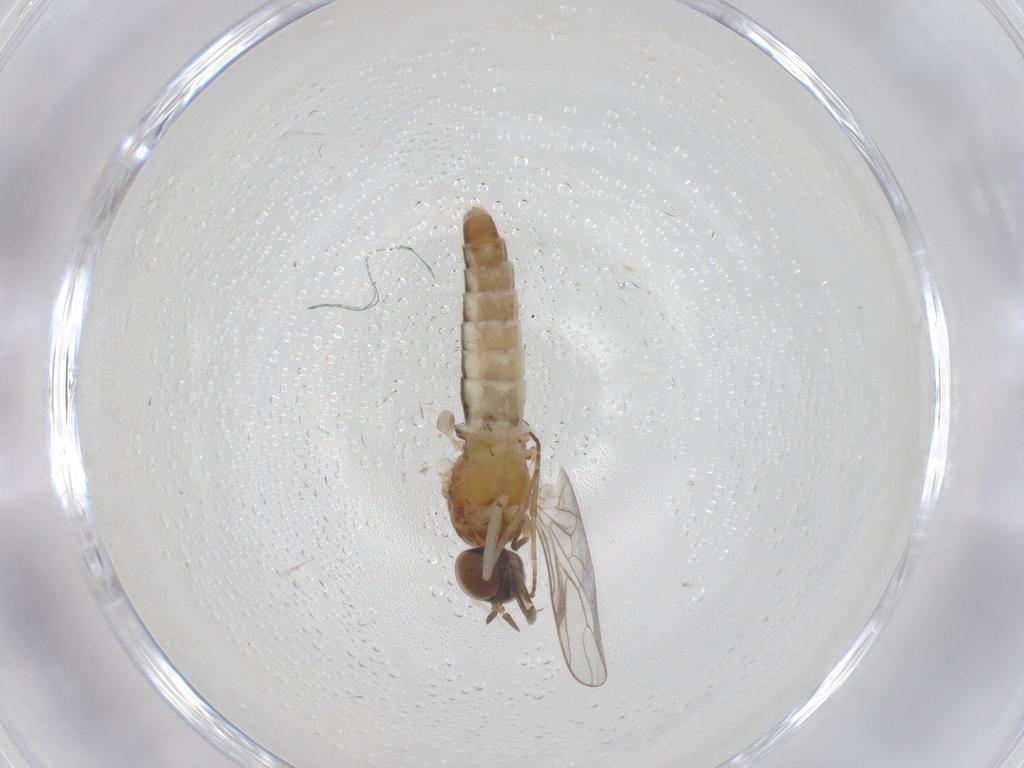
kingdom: Animalia
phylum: Arthropoda
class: Insecta
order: Diptera
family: Scenopinidae
